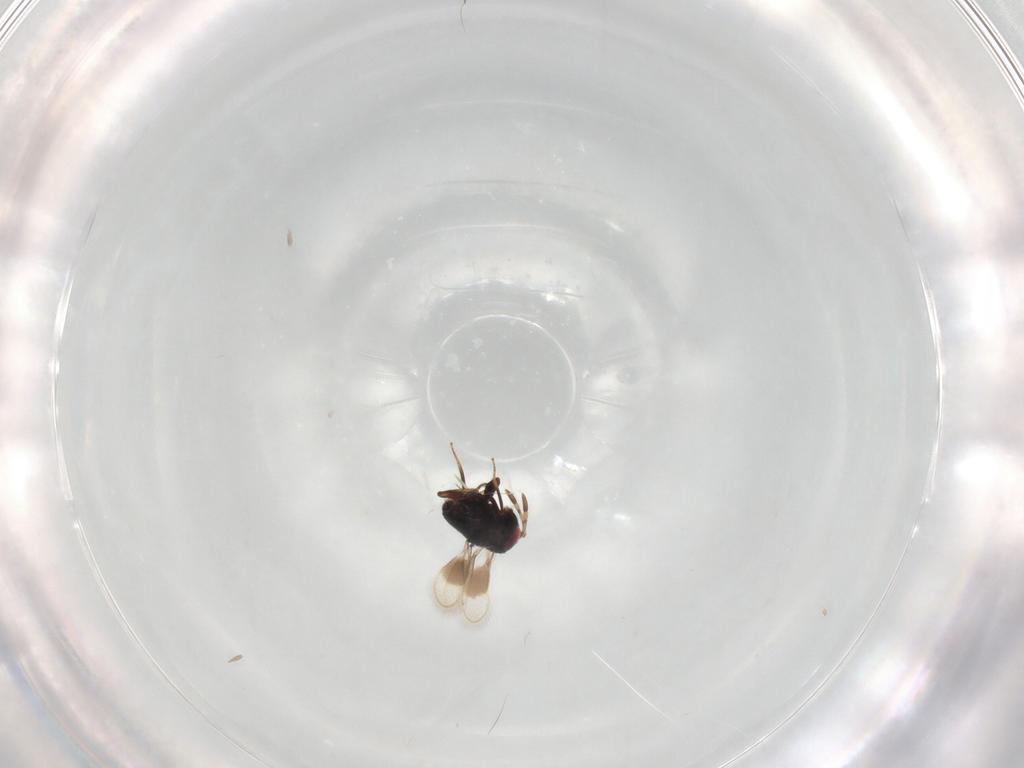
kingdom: Animalia
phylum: Arthropoda
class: Insecta
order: Hymenoptera
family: Azotidae
